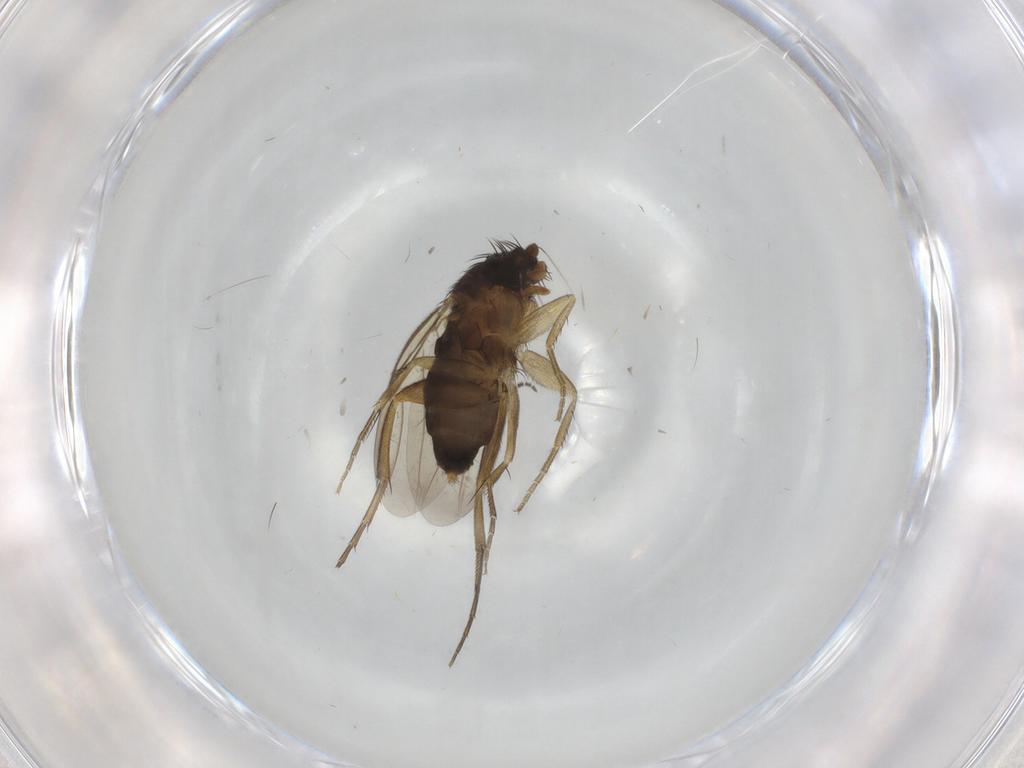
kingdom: Animalia
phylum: Arthropoda
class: Insecta
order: Diptera
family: Phoridae
